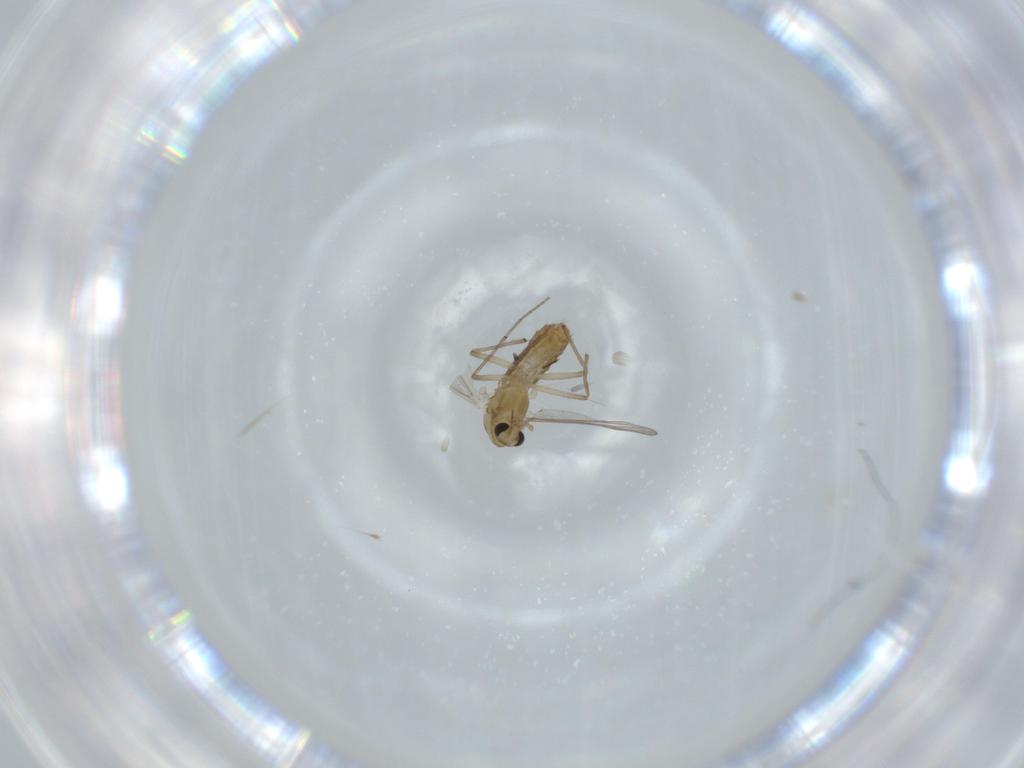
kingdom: Animalia
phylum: Arthropoda
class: Insecta
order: Diptera
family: Chironomidae
